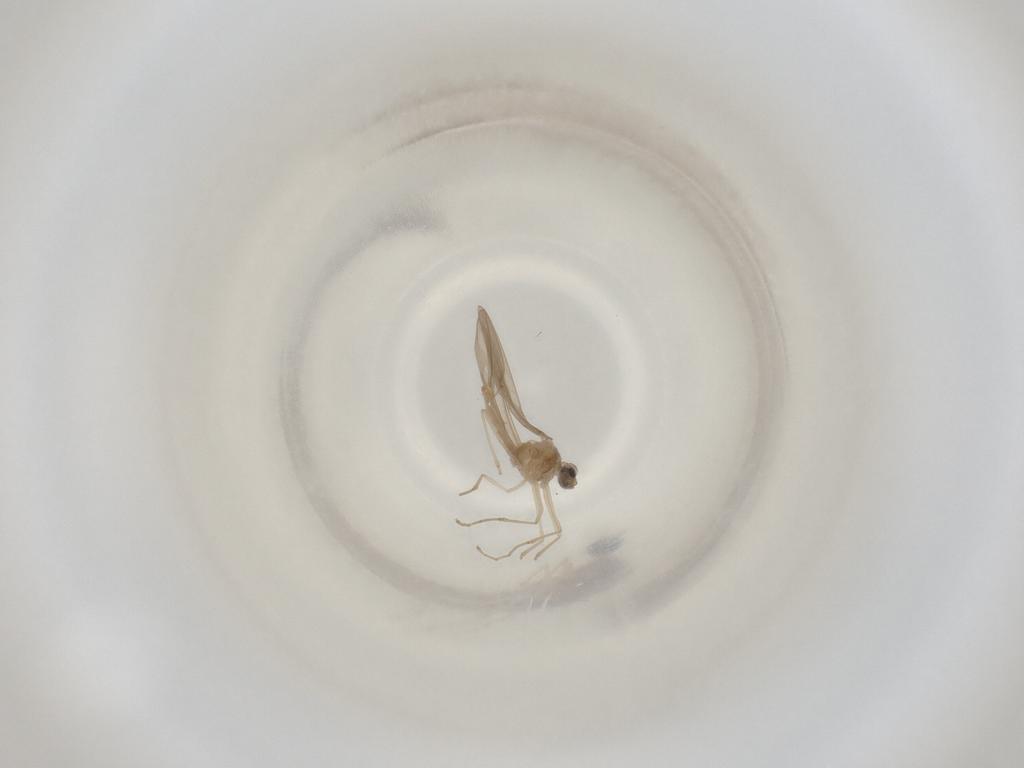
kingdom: Animalia
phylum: Arthropoda
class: Insecta
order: Diptera
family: Cecidomyiidae
